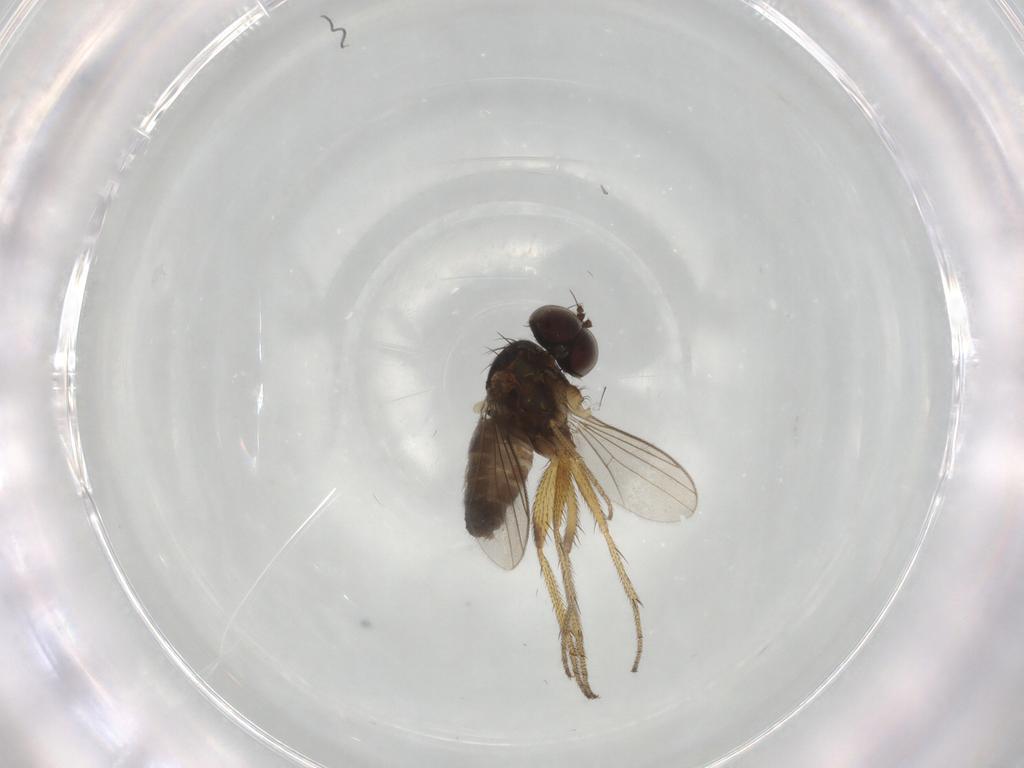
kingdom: Animalia
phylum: Arthropoda
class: Insecta
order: Diptera
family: Dolichopodidae
